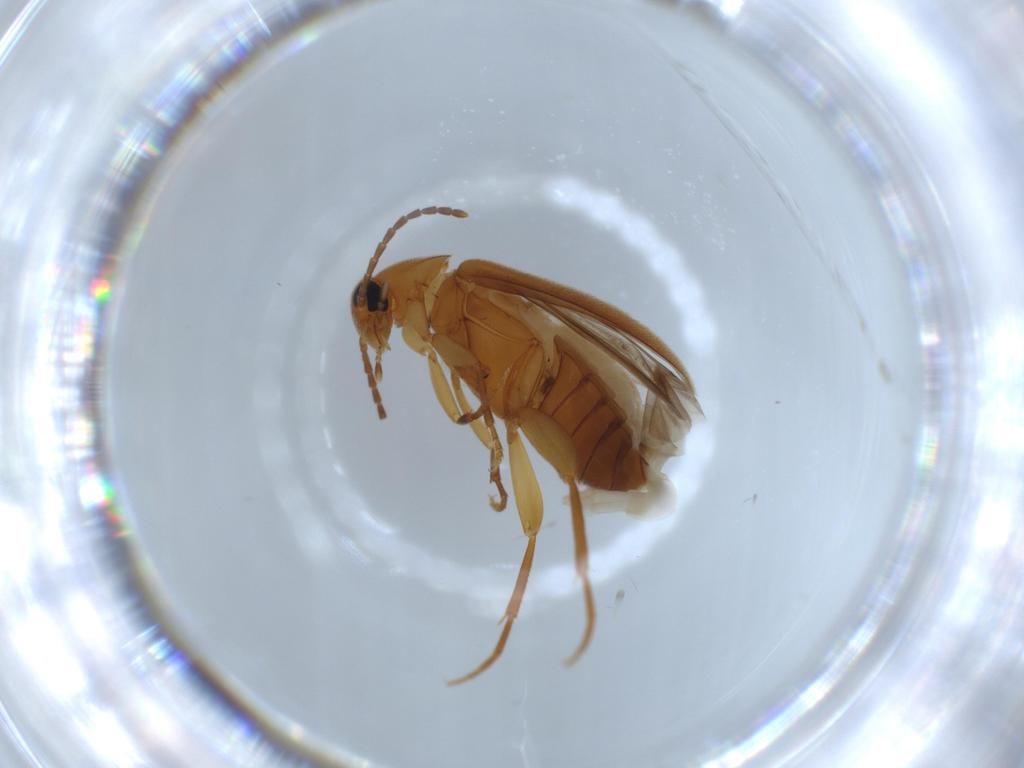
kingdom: Animalia
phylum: Arthropoda
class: Insecta
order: Coleoptera
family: Scraptiidae
